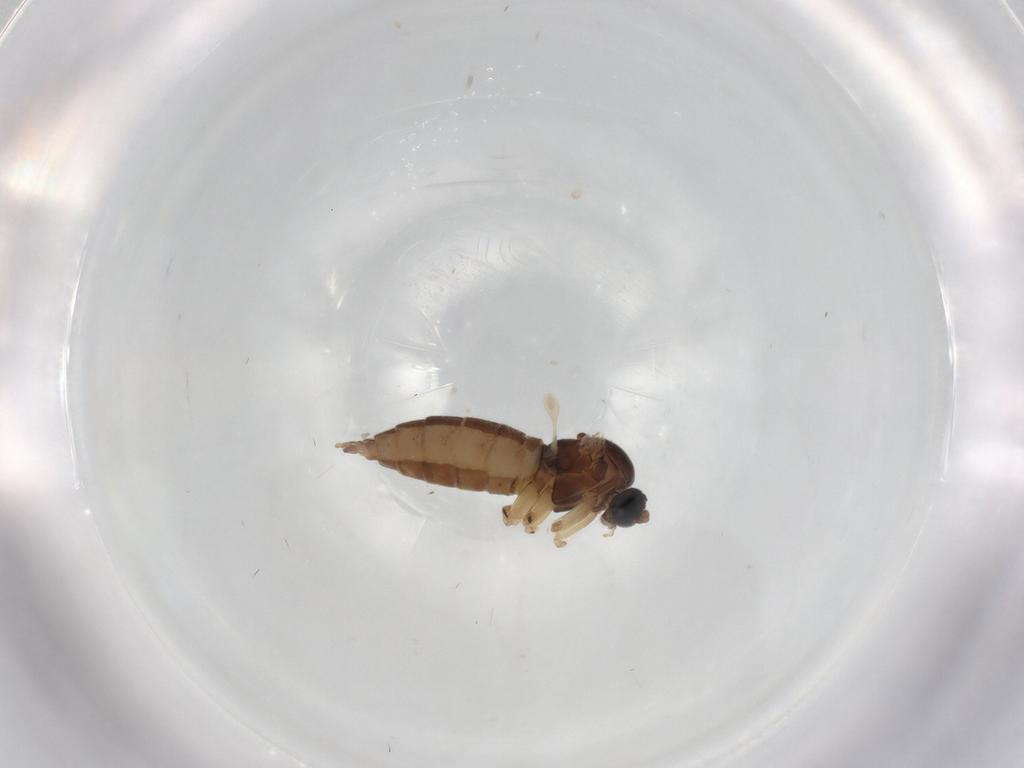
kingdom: Animalia
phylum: Arthropoda
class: Insecta
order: Diptera
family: Sciaridae
